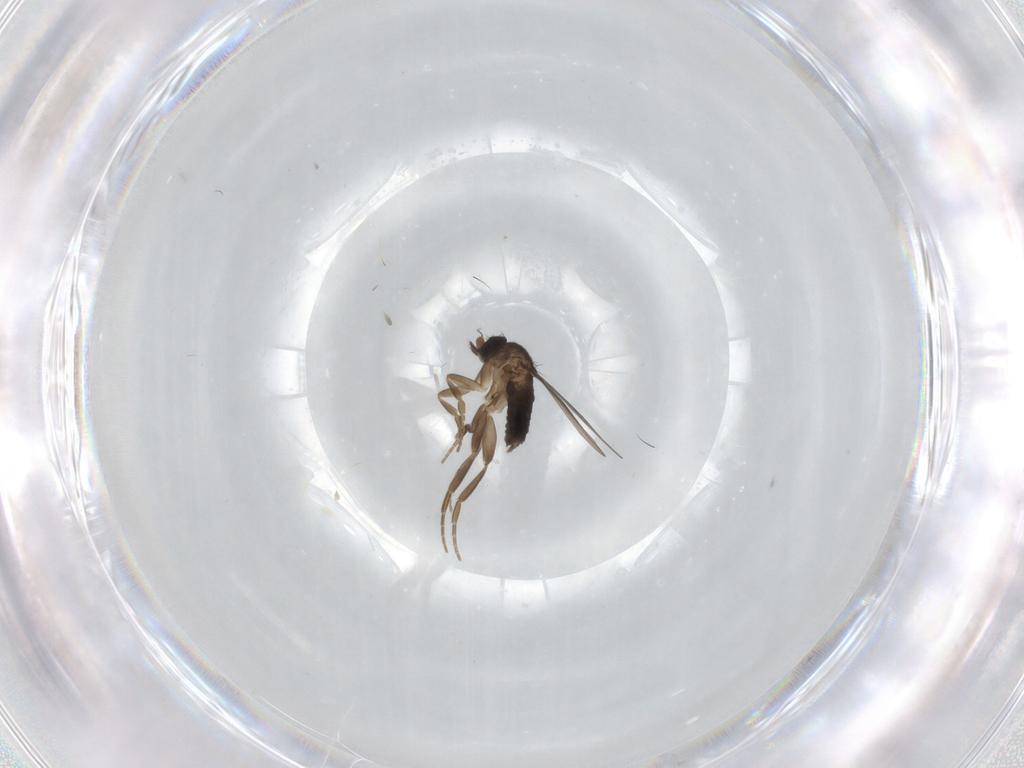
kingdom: Animalia
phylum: Arthropoda
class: Insecta
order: Diptera
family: Phoridae
